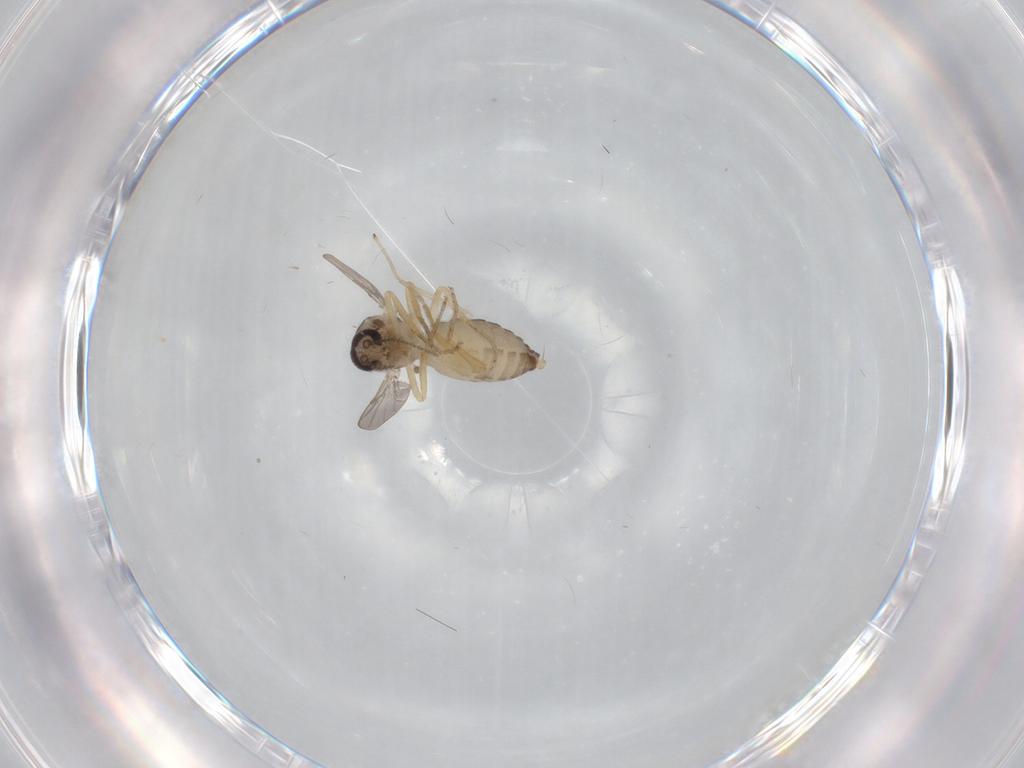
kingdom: Animalia
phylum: Arthropoda
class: Insecta
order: Diptera
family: Ceratopogonidae
